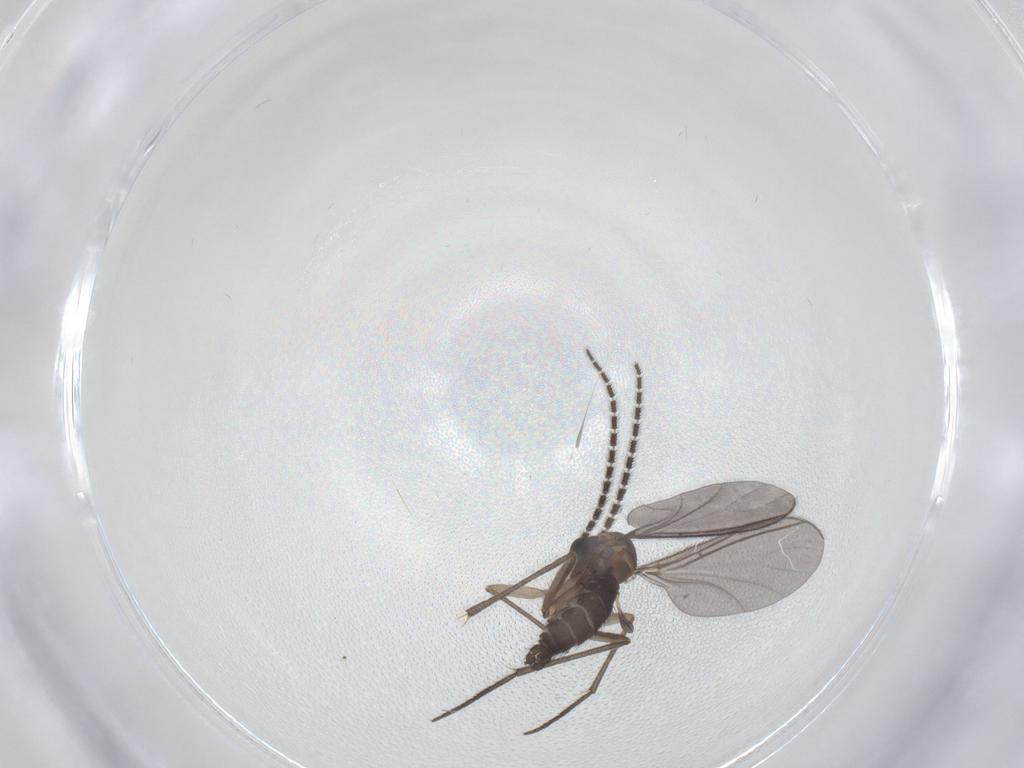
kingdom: Animalia
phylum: Arthropoda
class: Insecta
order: Diptera
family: Sciaridae
